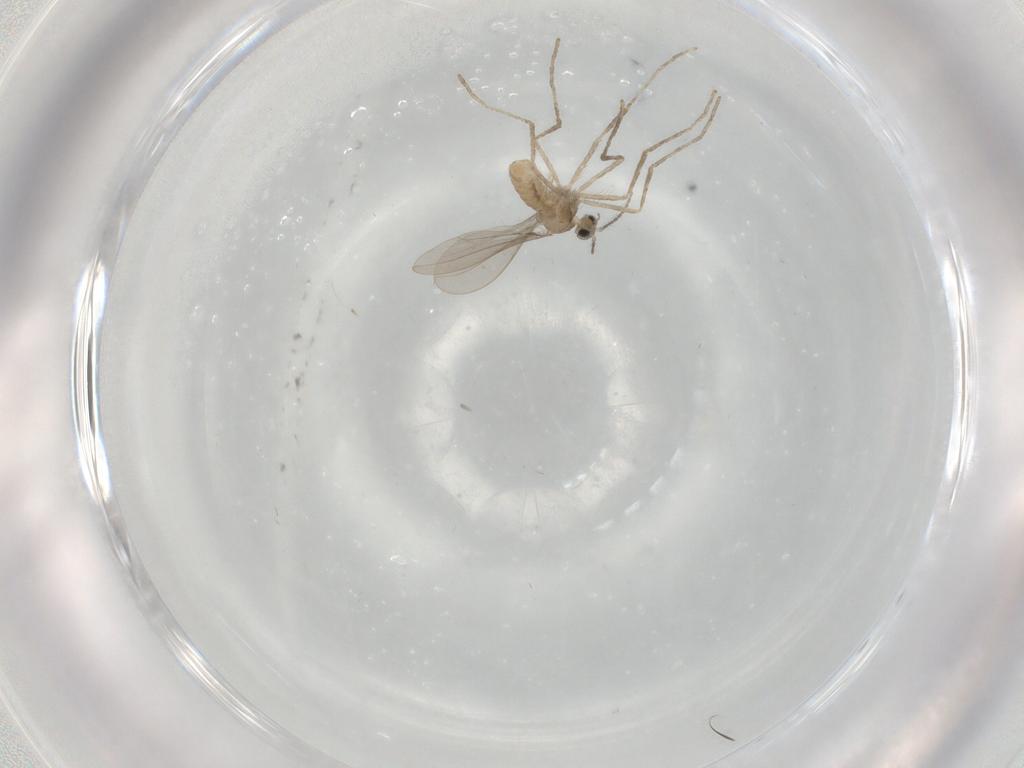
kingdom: Animalia
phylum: Arthropoda
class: Insecta
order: Diptera
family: Cecidomyiidae
